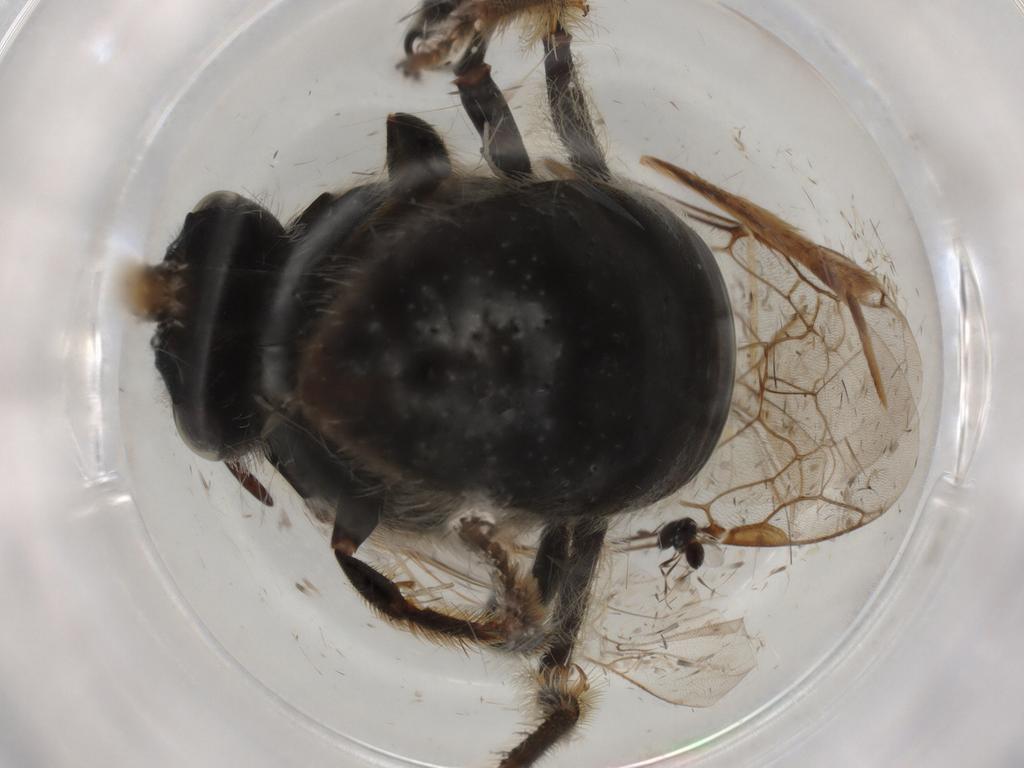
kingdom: Animalia
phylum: Arthropoda
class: Insecta
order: Hymenoptera
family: Halictidae
